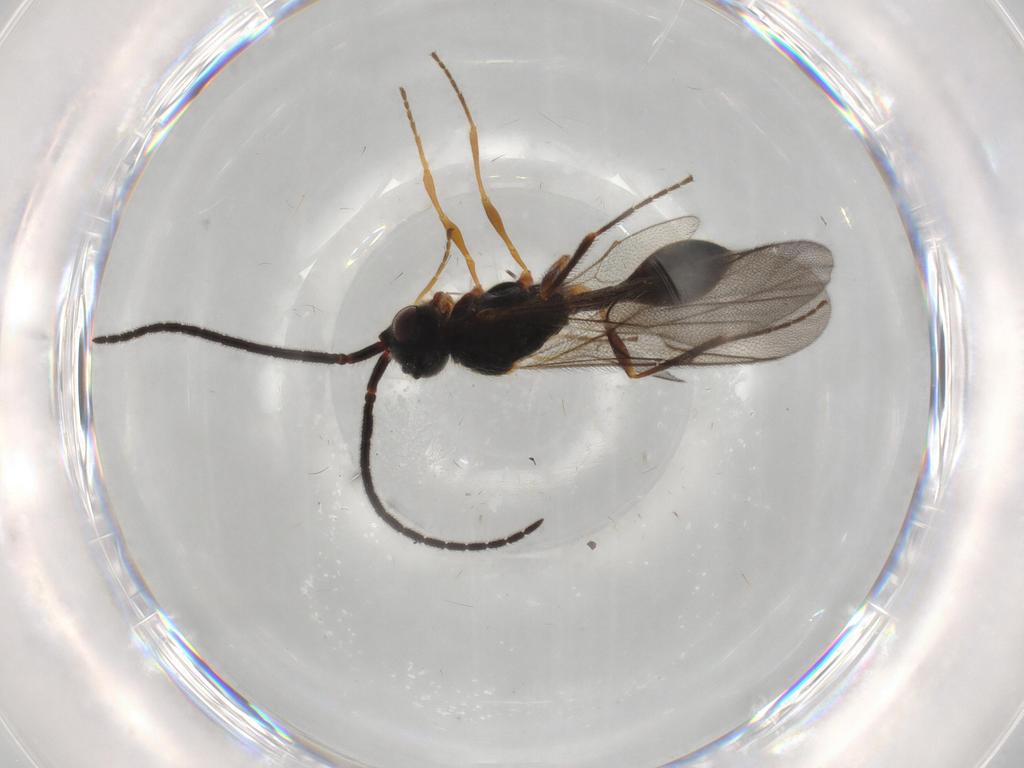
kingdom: Animalia
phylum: Arthropoda
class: Insecta
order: Hymenoptera
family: Diapriidae
